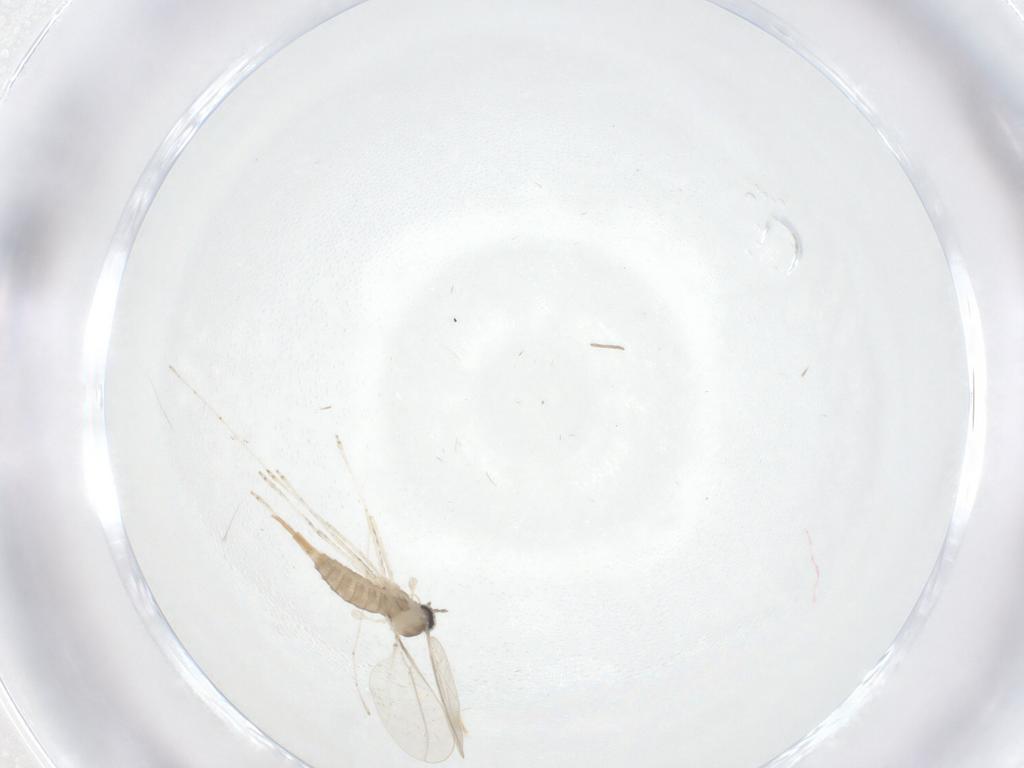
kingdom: Animalia
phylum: Arthropoda
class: Insecta
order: Diptera
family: Cecidomyiidae
